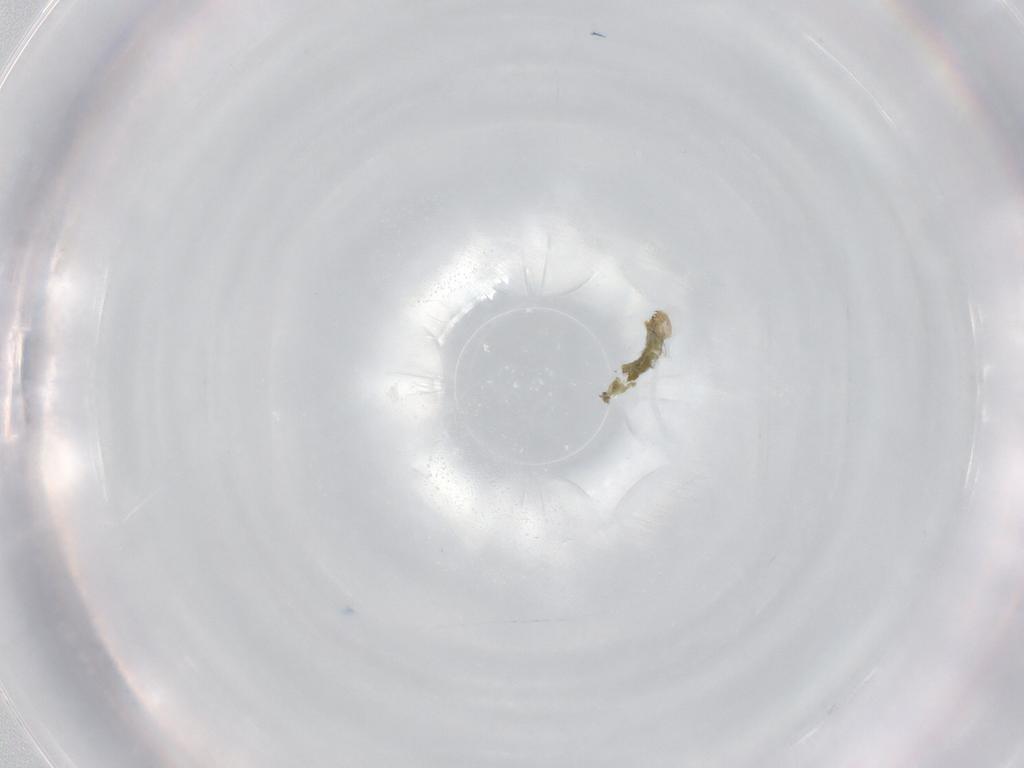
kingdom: Animalia
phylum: Arthropoda
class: Insecta
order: Diptera
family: Chironomidae
